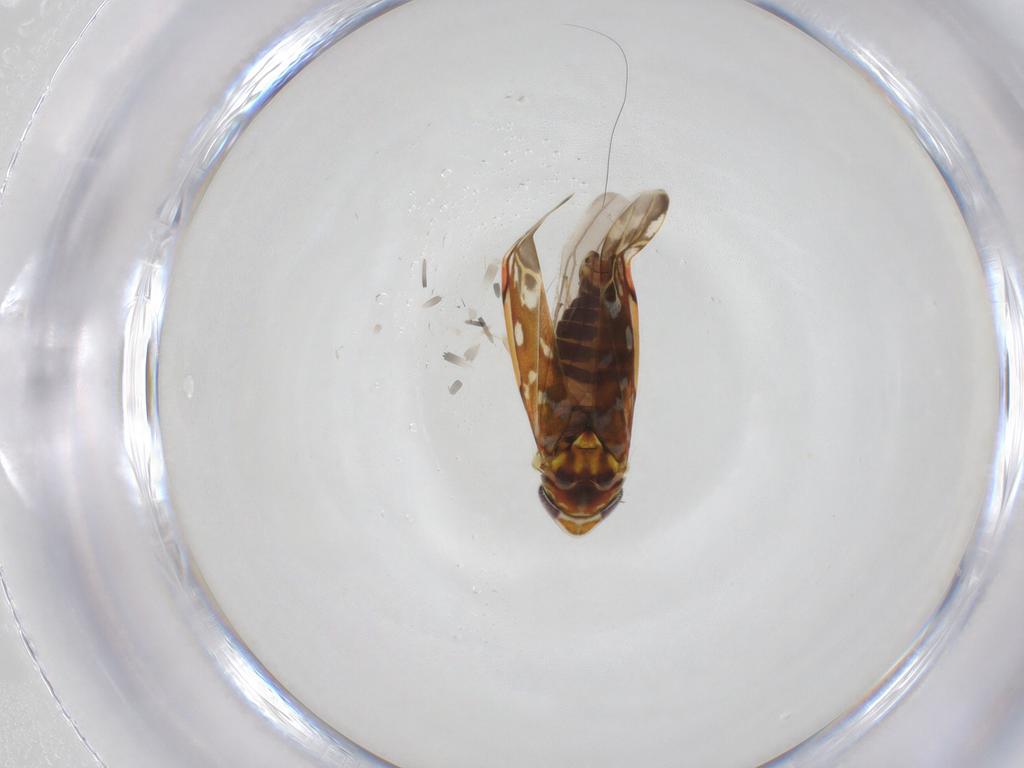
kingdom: Animalia
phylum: Arthropoda
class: Insecta
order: Hemiptera
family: Cicadellidae
